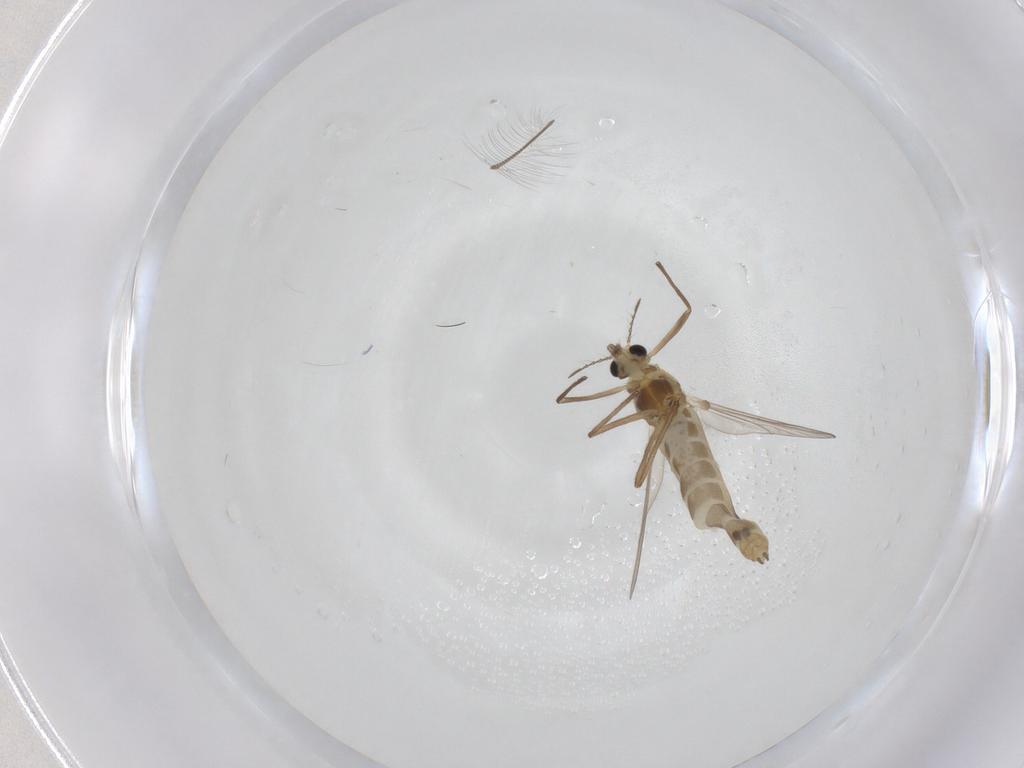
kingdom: Animalia
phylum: Arthropoda
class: Insecta
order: Diptera
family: Chironomidae
